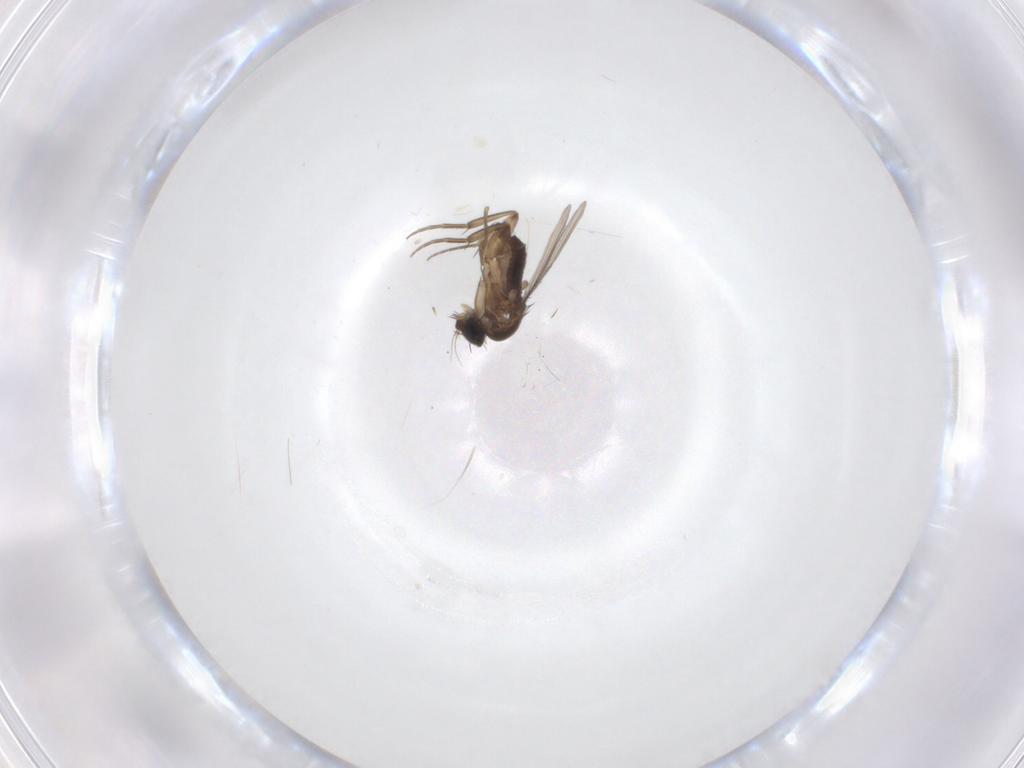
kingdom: Animalia
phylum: Arthropoda
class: Insecta
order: Diptera
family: Phoridae
